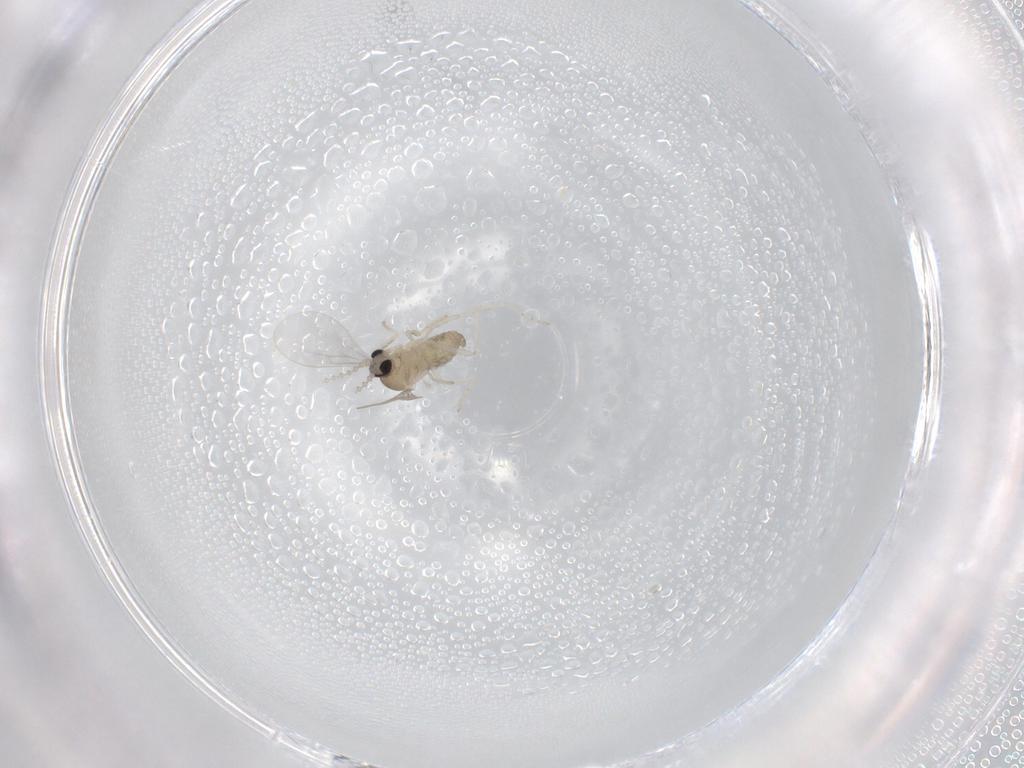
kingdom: Animalia
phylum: Arthropoda
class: Insecta
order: Diptera
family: Cecidomyiidae
